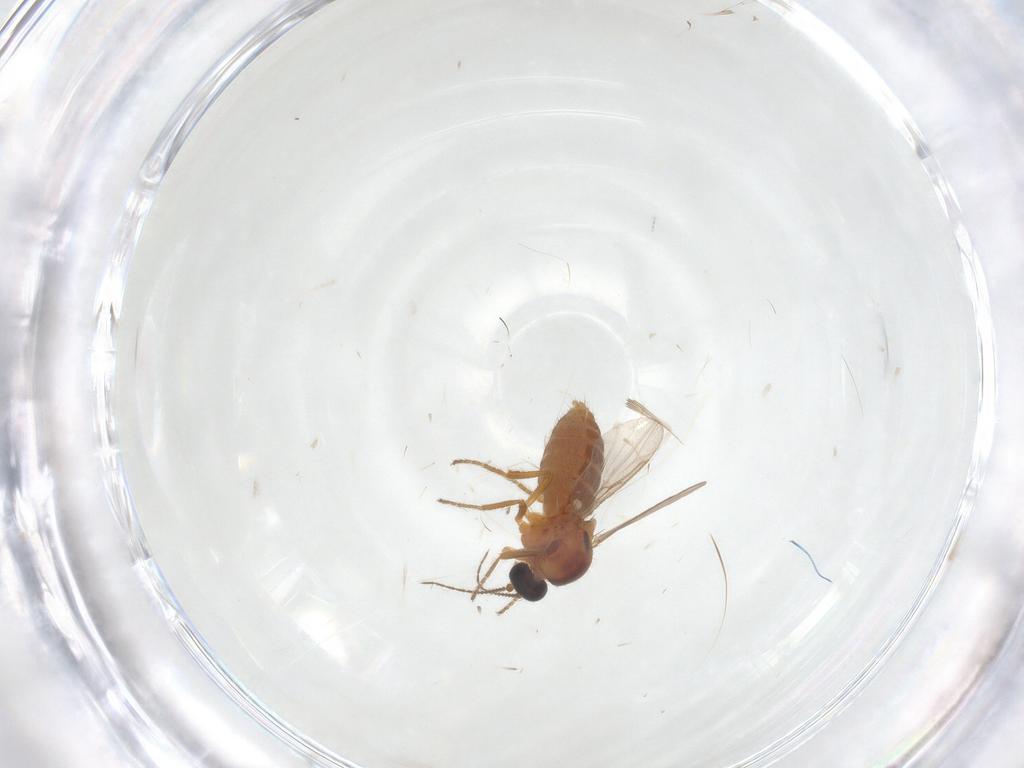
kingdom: Animalia
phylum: Arthropoda
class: Insecta
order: Diptera
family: Ceratopogonidae
